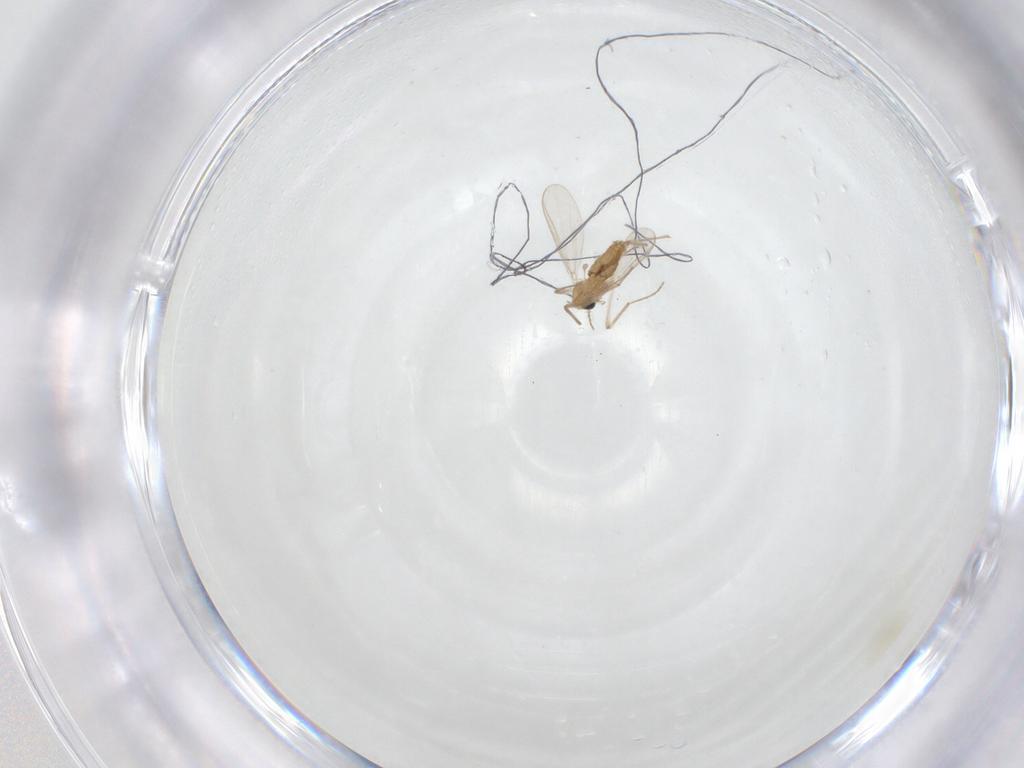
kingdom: Animalia
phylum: Arthropoda
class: Insecta
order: Diptera
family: Chironomidae
